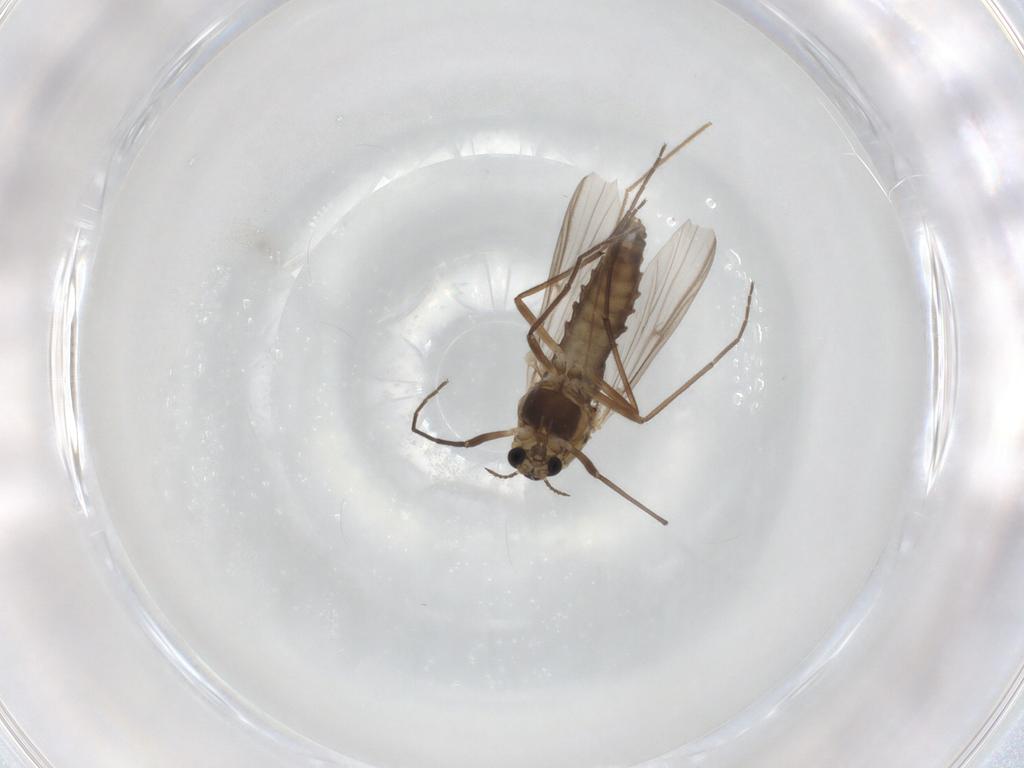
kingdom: Animalia
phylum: Arthropoda
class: Insecta
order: Diptera
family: Chironomidae
